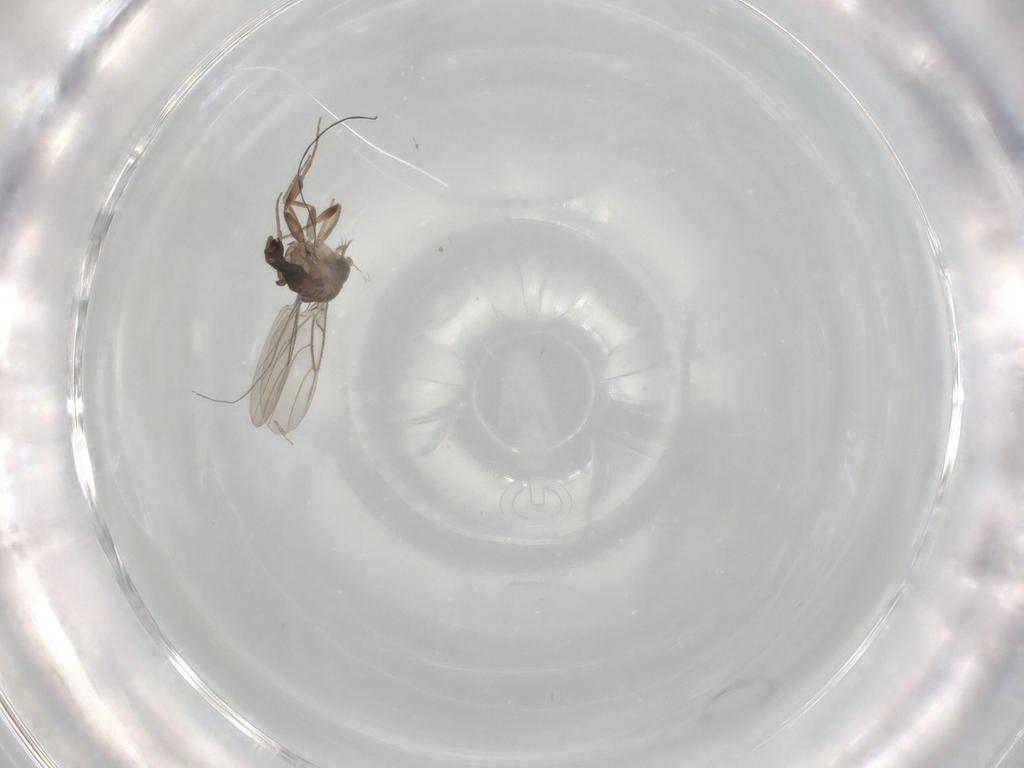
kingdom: Animalia
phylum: Arthropoda
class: Insecta
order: Diptera
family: Phoridae
